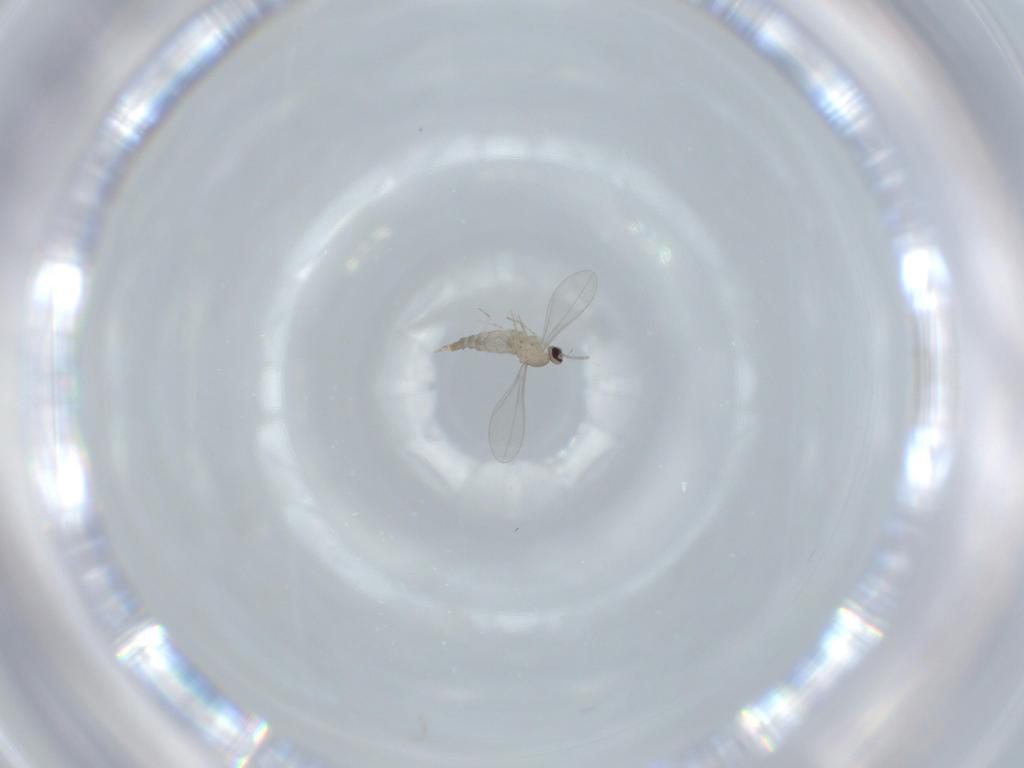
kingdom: Animalia
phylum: Arthropoda
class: Insecta
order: Diptera
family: Cecidomyiidae
